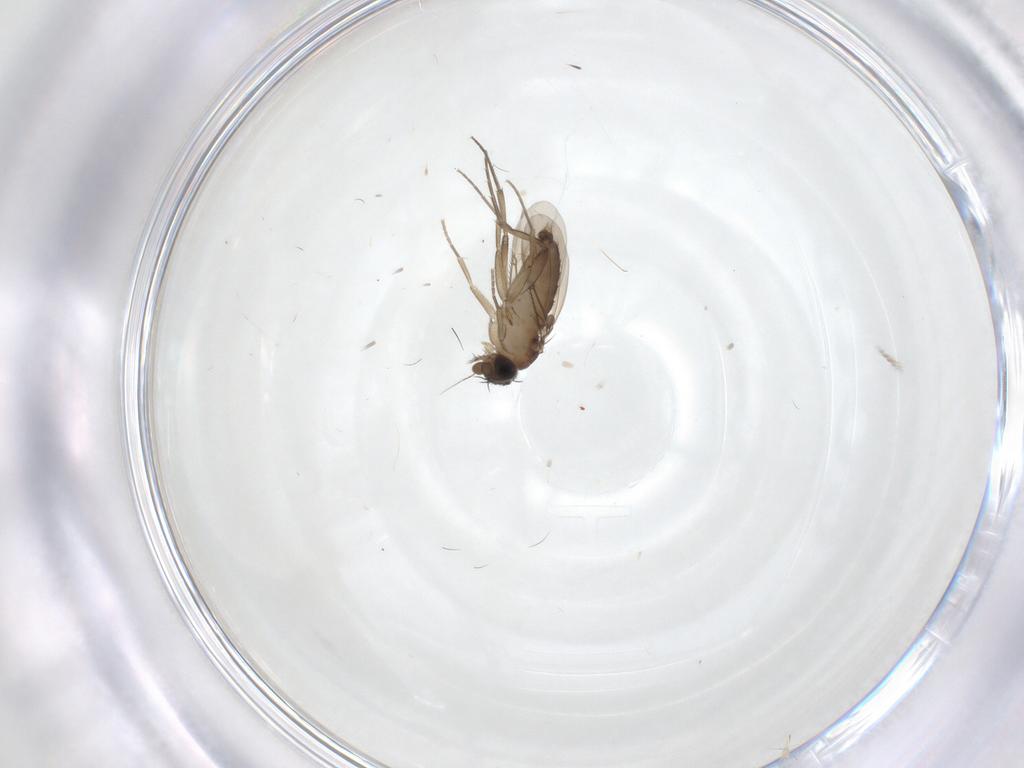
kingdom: Animalia
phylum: Arthropoda
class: Insecta
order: Diptera
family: Phoridae
